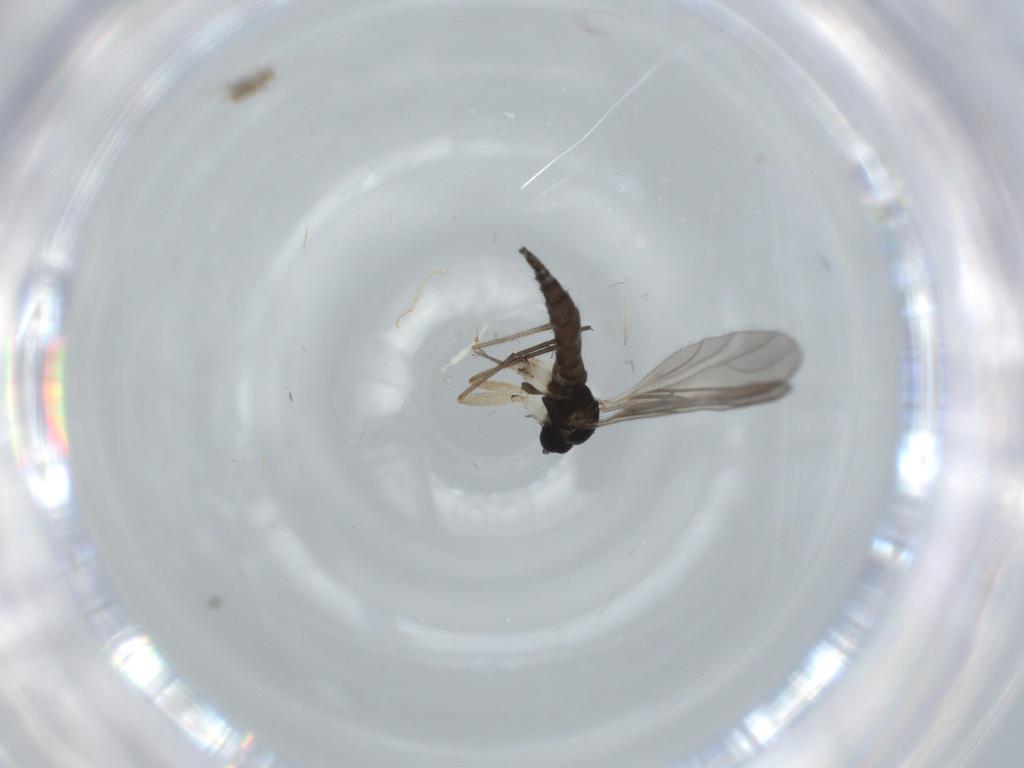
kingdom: Animalia
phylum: Arthropoda
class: Insecta
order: Diptera
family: Sciaridae
